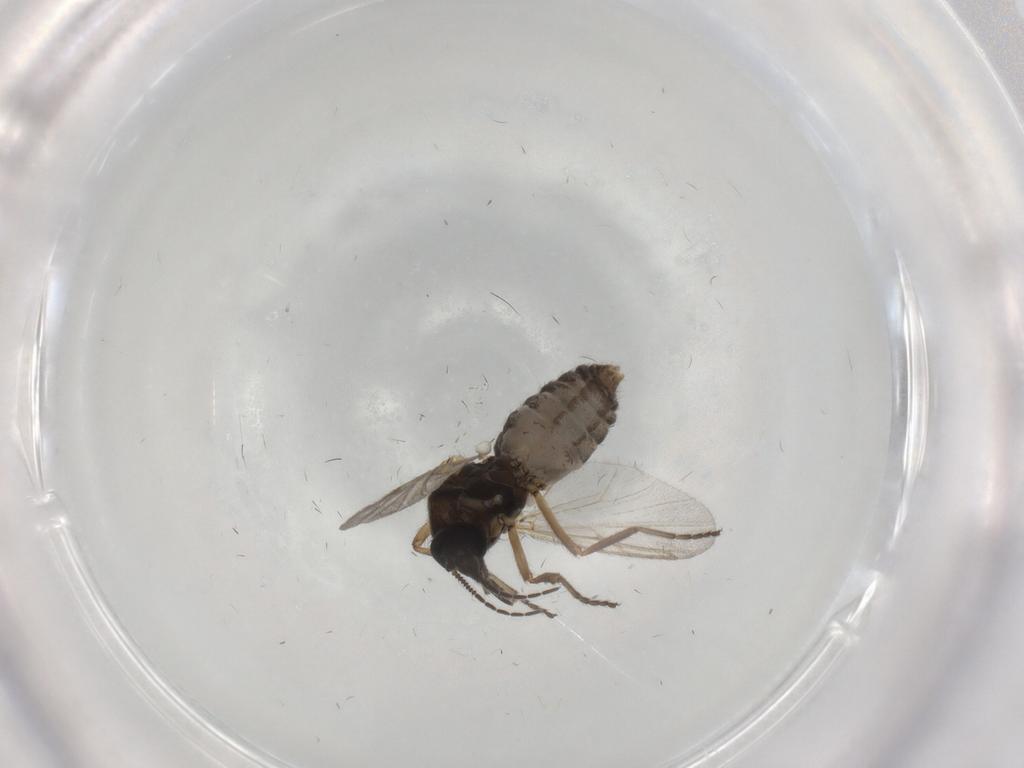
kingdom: Animalia
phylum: Arthropoda
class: Insecta
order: Diptera
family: Ceratopogonidae
